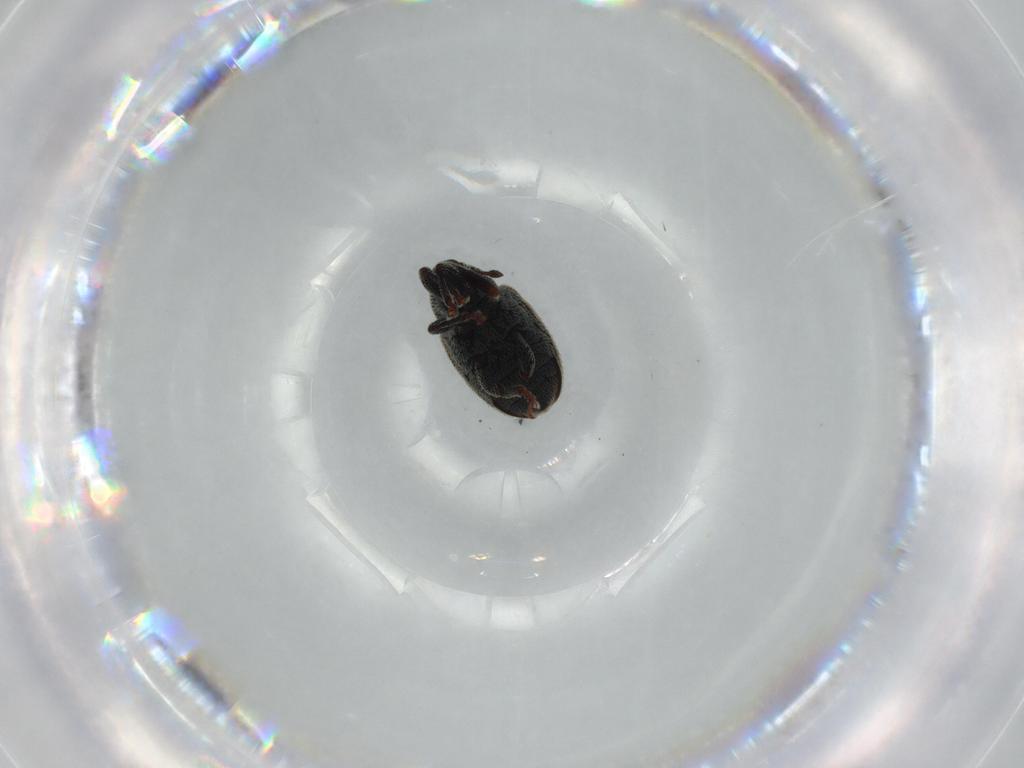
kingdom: Animalia
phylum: Arthropoda
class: Insecta
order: Coleoptera
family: Curculionidae
